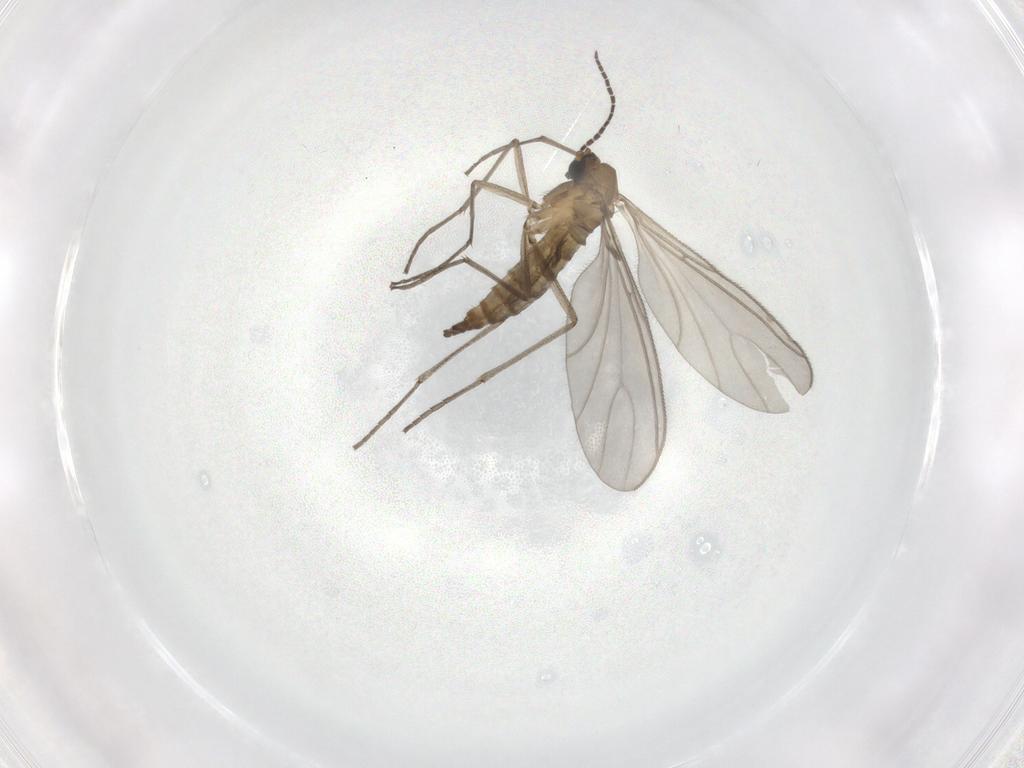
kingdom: Animalia
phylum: Arthropoda
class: Insecta
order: Diptera
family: Sciaridae
